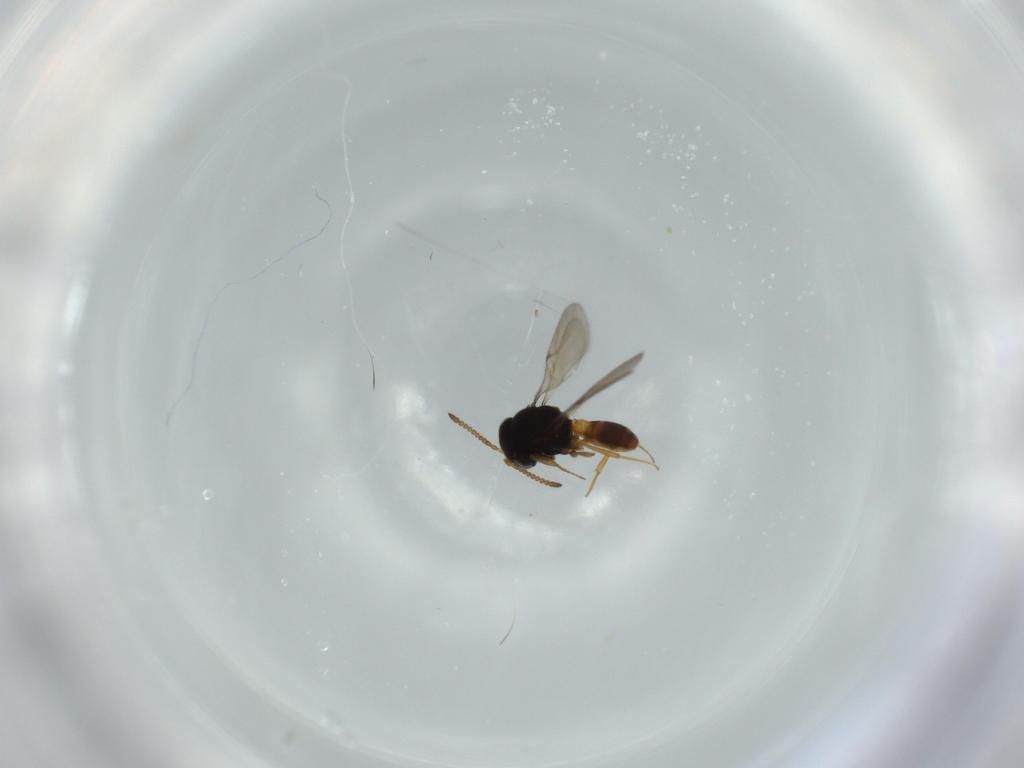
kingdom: Animalia
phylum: Arthropoda
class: Insecta
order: Hymenoptera
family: Scelionidae
